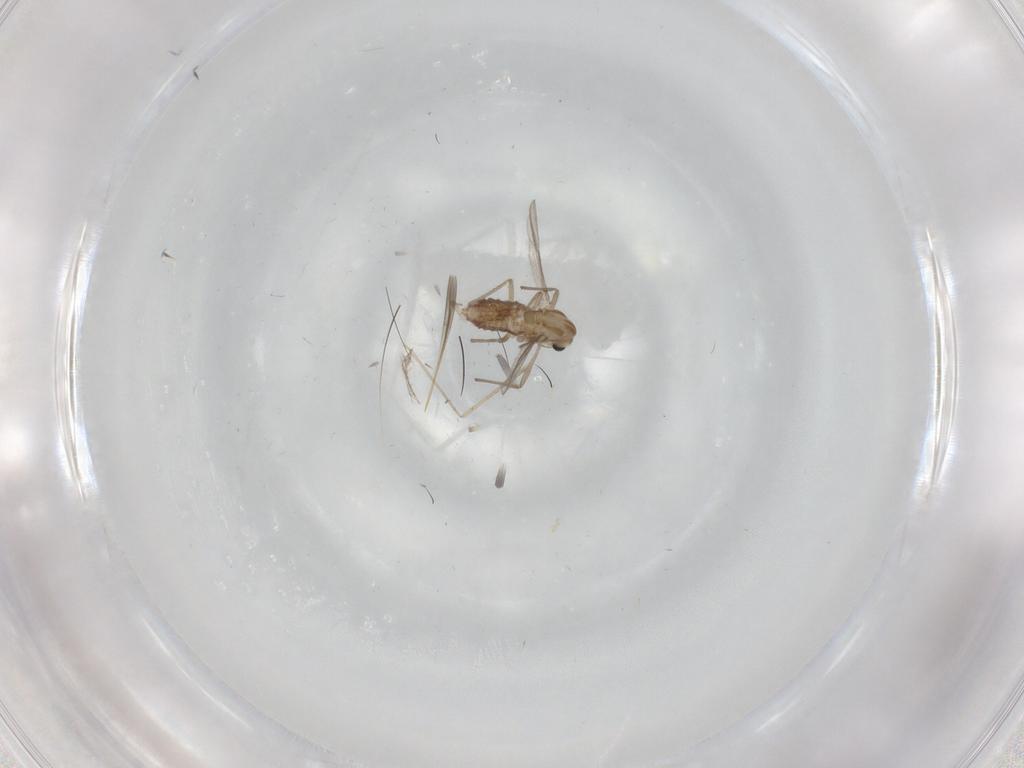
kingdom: Animalia
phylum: Arthropoda
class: Insecta
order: Diptera
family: Chironomidae
